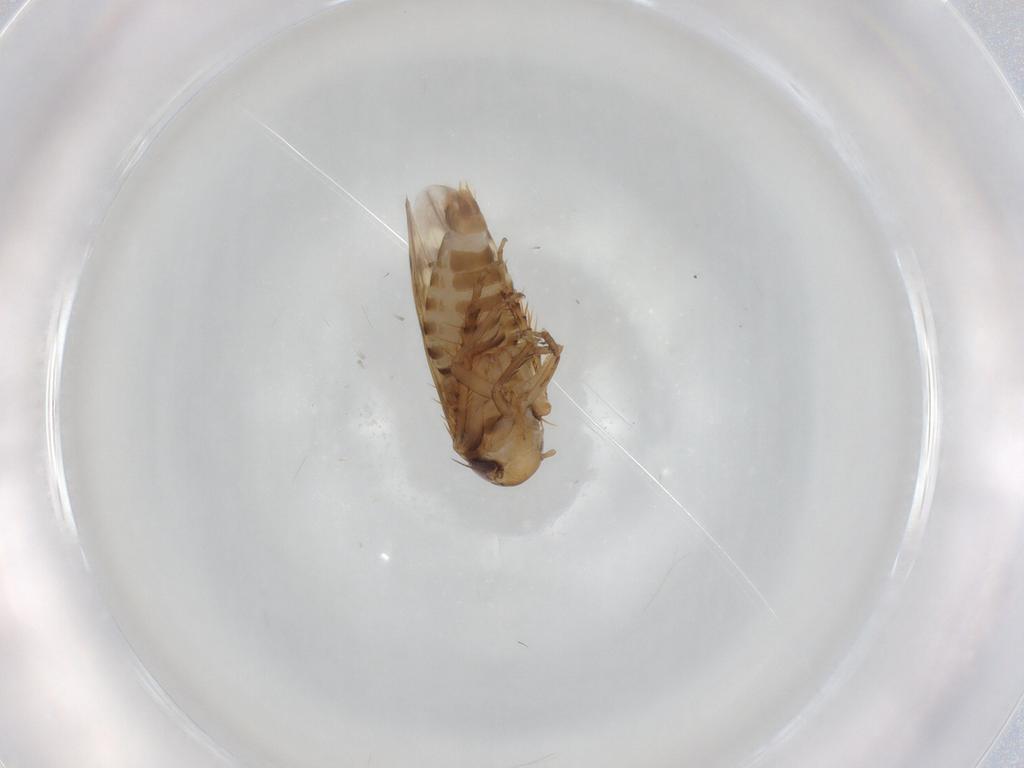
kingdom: Animalia
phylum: Arthropoda
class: Insecta
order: Hemiptera
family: Cicadellidae
